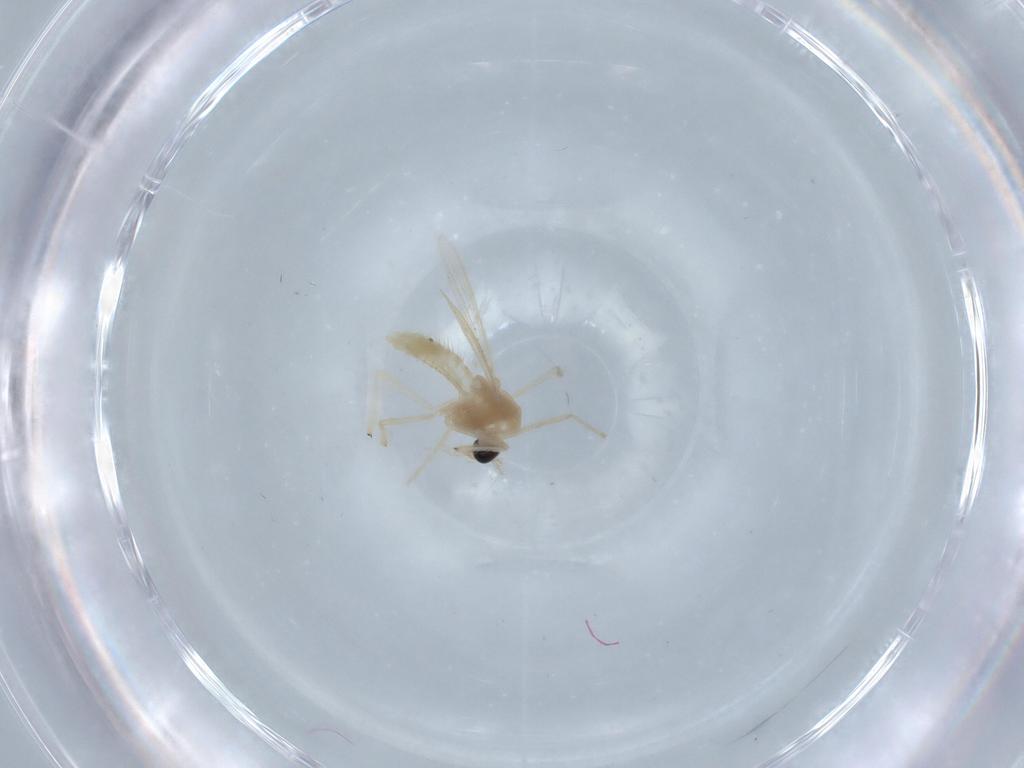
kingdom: Animalia
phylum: Arthropoda
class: Insecta
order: Diptera
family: Chironomidae
